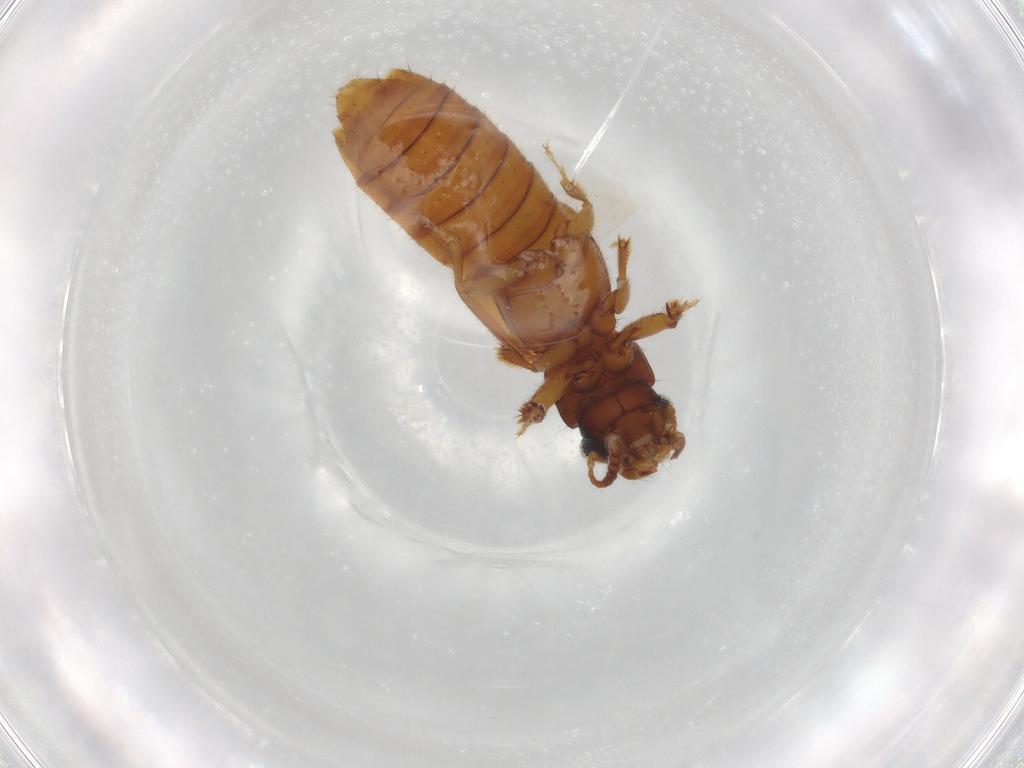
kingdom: Animalia
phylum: Arthropoda
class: Insecta
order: Coleoptera
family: Staphylinidae
